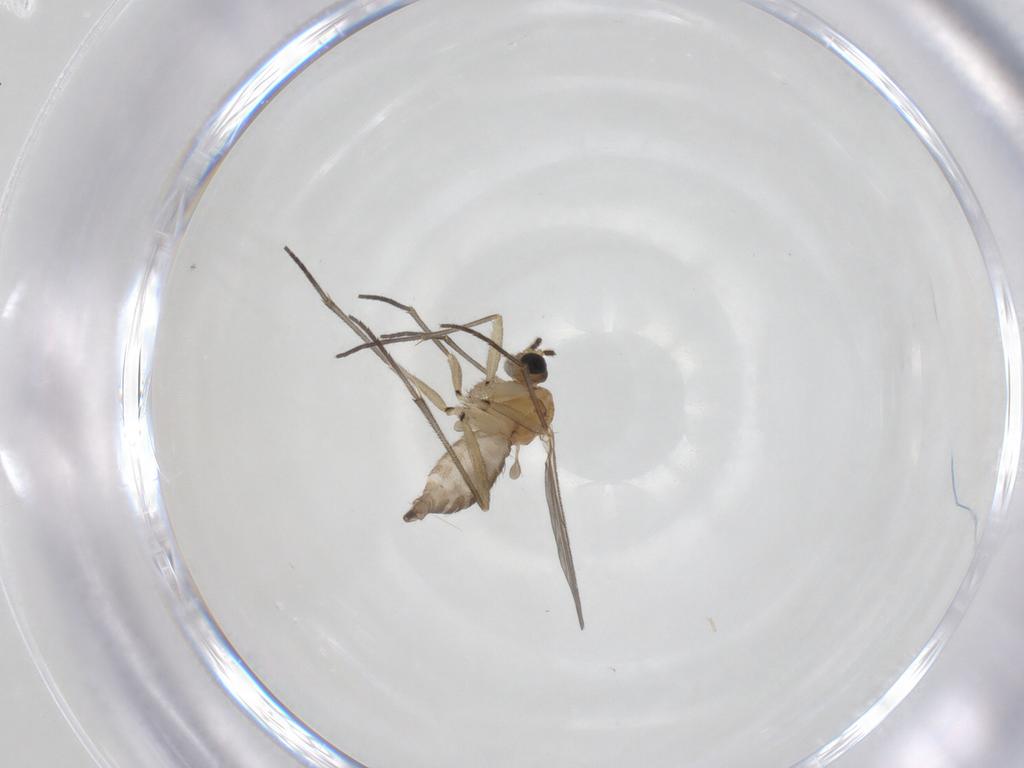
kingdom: Animalia
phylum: Arthropoda
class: Insecta
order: Diptera
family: Sciaridae
